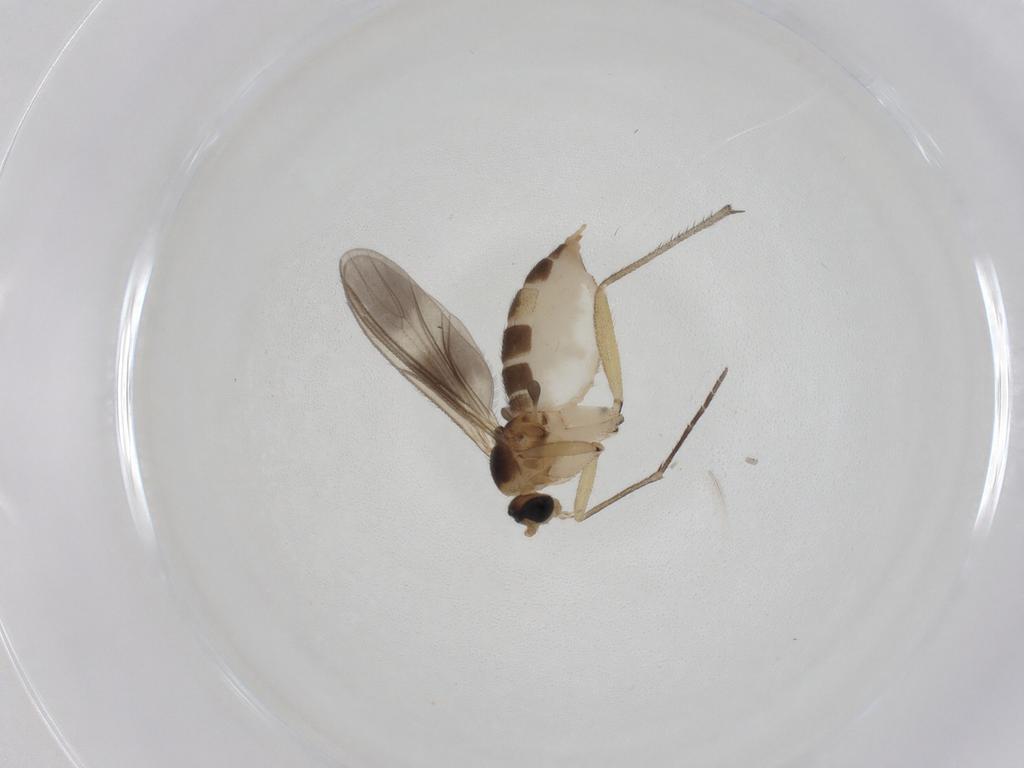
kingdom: Animalia
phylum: Arthropoda
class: Insecta
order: Diptera
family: Sciaridae
